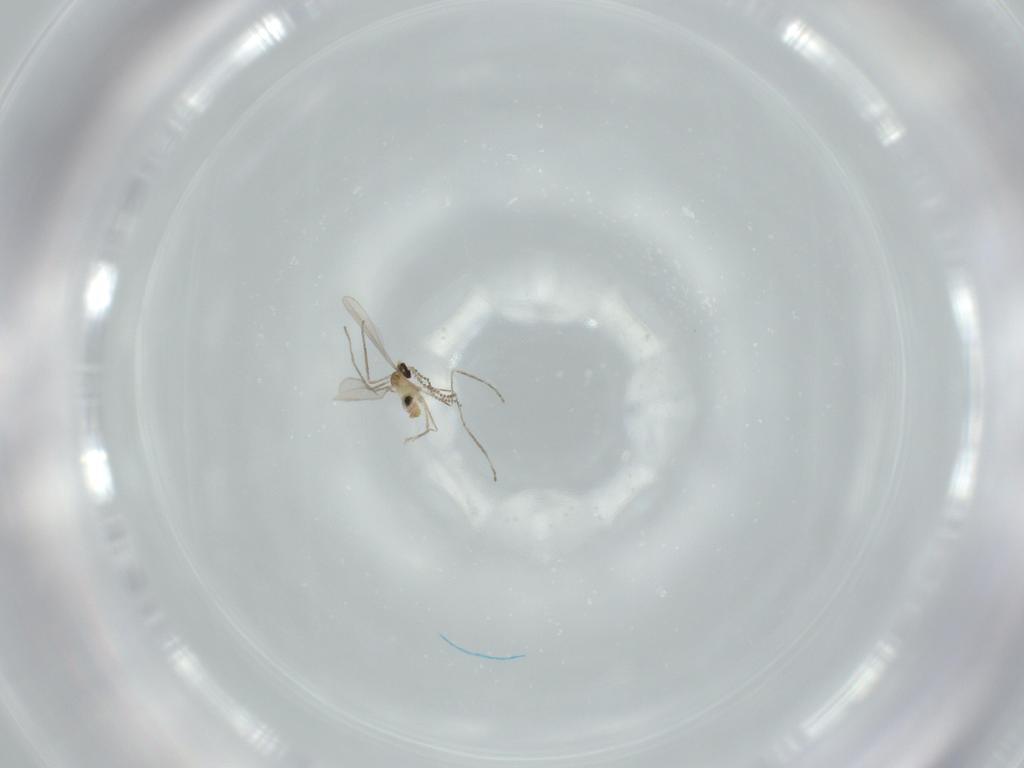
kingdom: Animalia
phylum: Arthropoda
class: Insecta
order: Diptera
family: Cecidomyiidae
